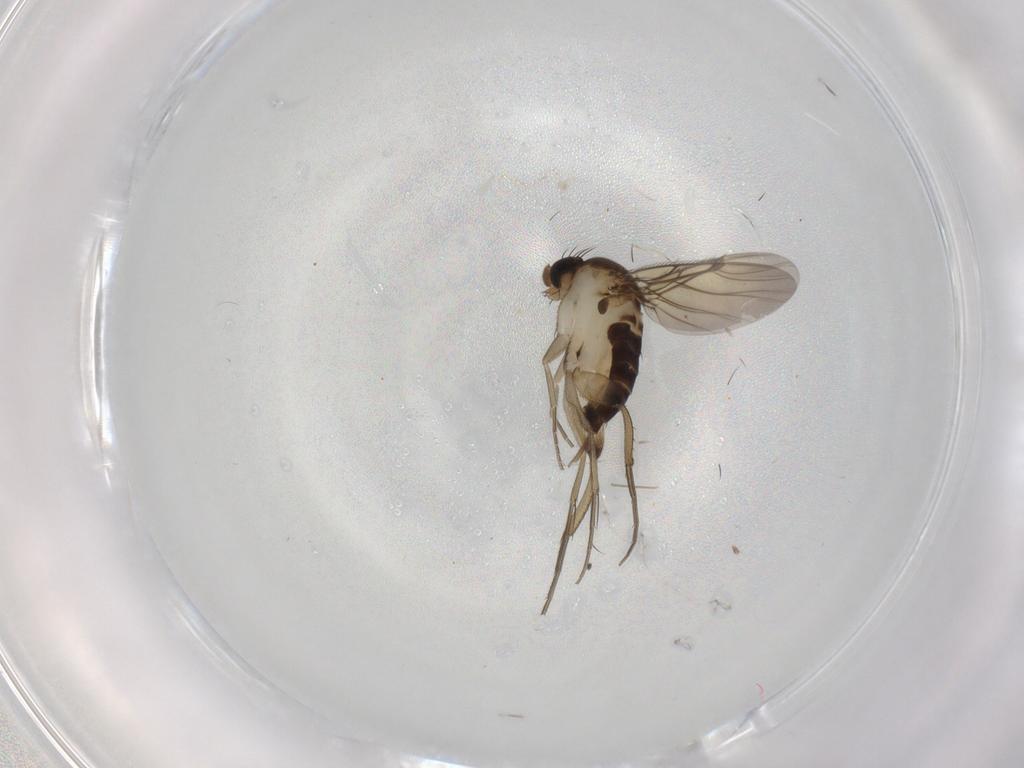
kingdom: Animalia
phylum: Arthropoda
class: Insecta
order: Diptera
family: Phoridae
